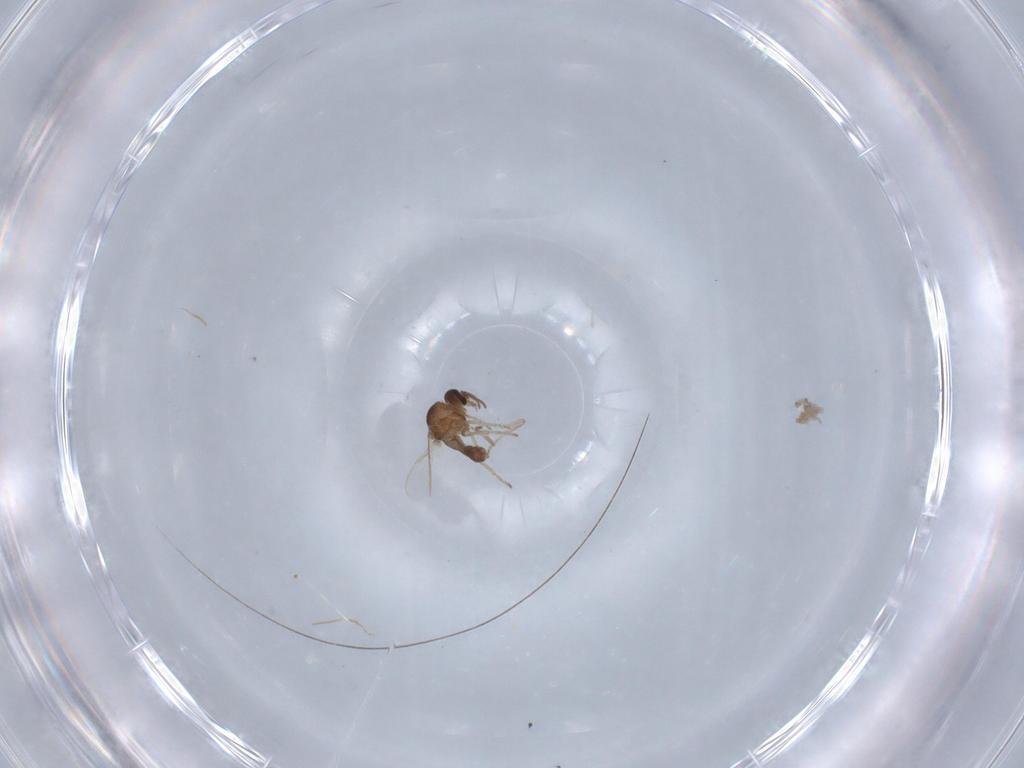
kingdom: Animalia
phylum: Arthropoda
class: Insecta
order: Diptera
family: Ceratopogonidae
